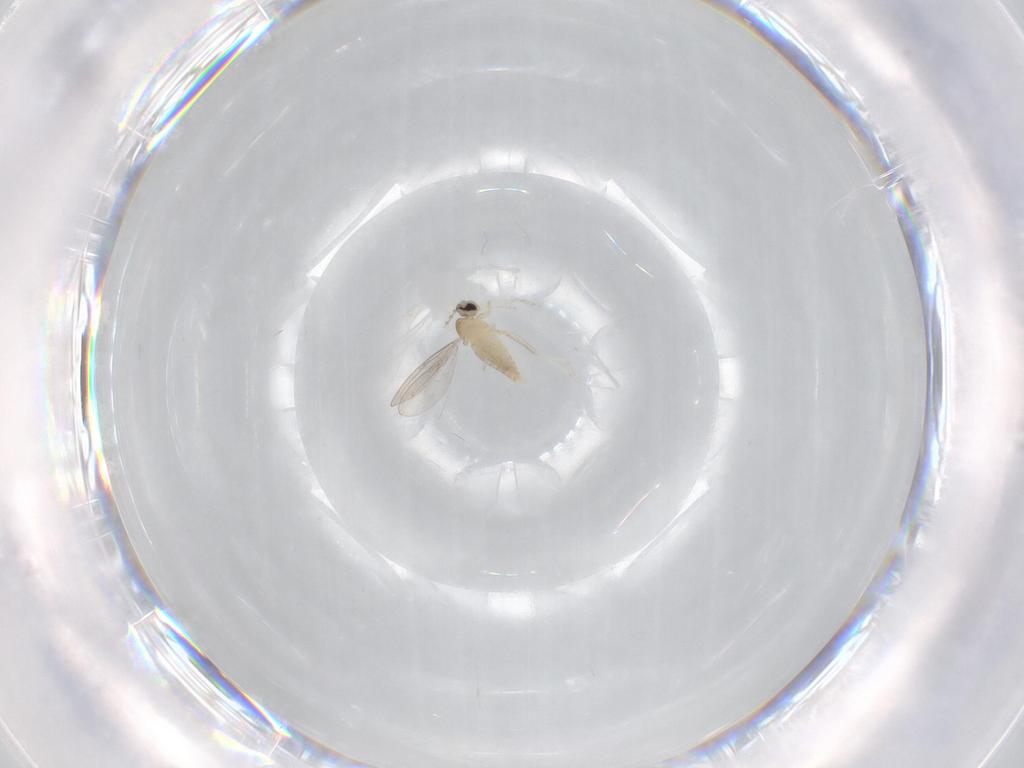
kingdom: Animalia
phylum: Arthropoda
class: Insecta
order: Diptera
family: Cecidomyiidae
